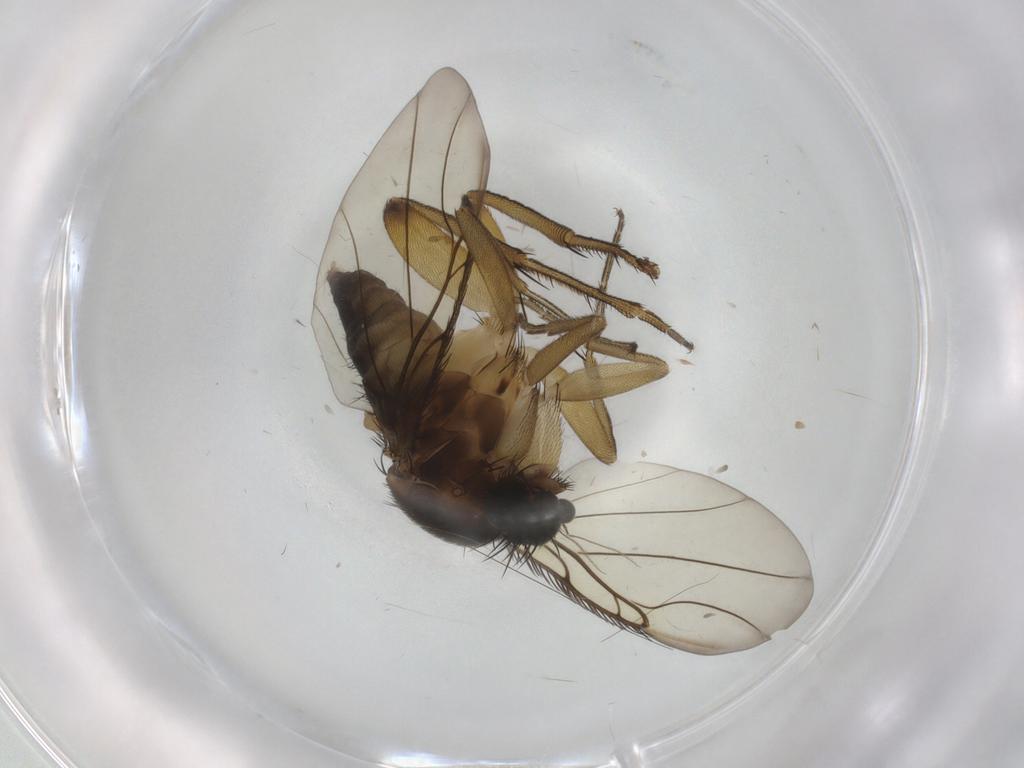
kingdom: Animalia
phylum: Arthropoda
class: Insecta
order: Diptera
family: Sciaridae
